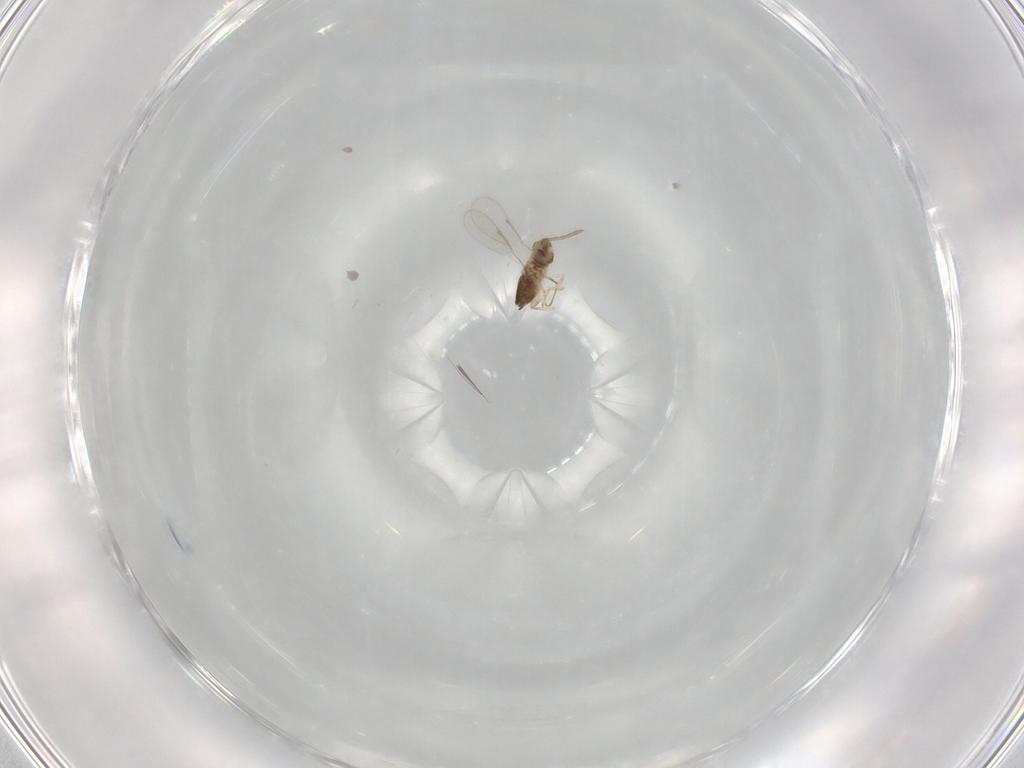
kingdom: Animalia
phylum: Arthropoda
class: Insecta
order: Hymenoptera
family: Aphelinidae
